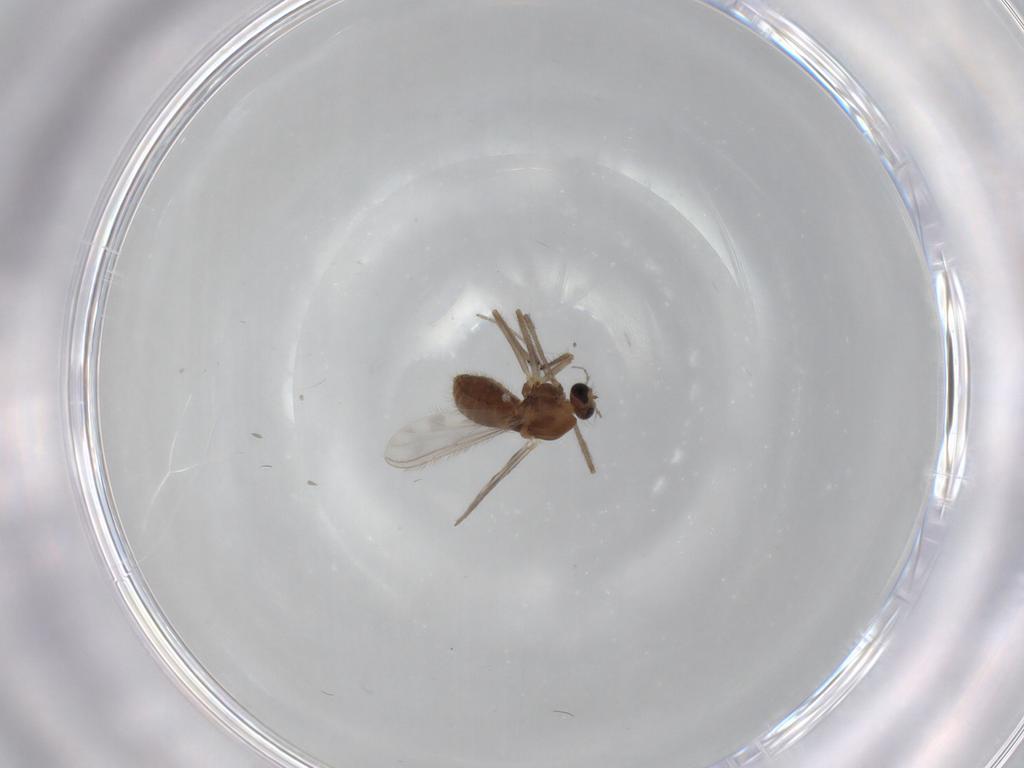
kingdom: Animalia
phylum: Arthropoda
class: Insecta
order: Diptera
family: Chironomidae
